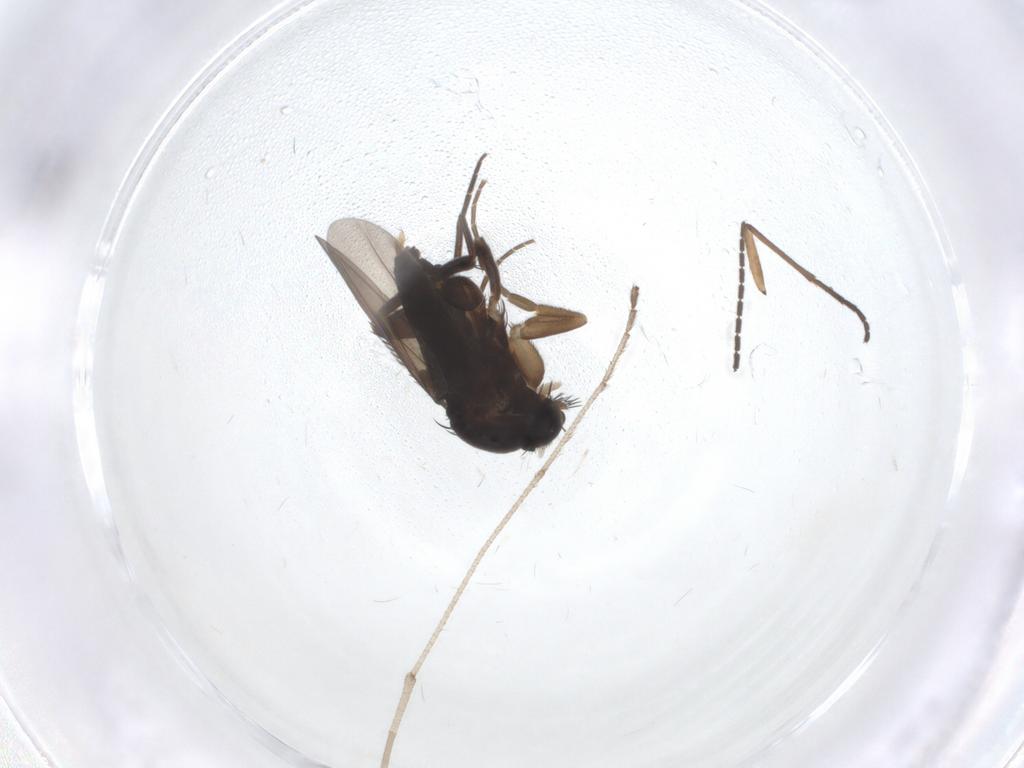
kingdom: Animalia
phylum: Arthropoda
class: Insecta
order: Diptera
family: Phoridae
